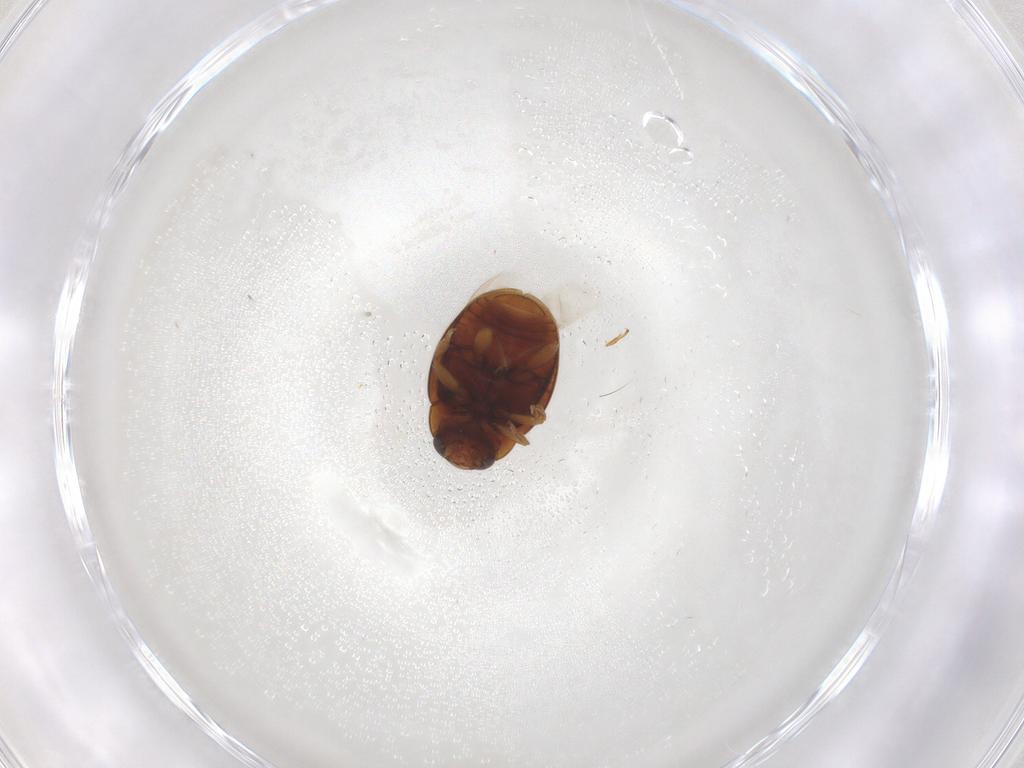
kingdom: Animalia
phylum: Arthropoda
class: Insecta
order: Coleoptera
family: Coccinellidae
